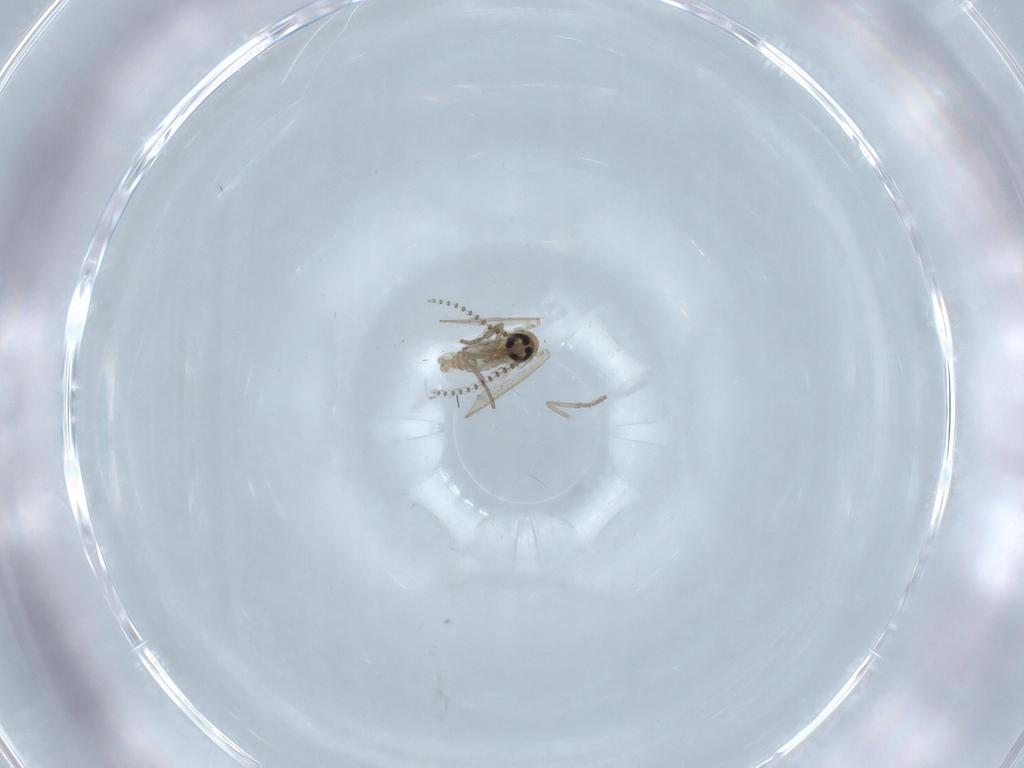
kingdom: Animalia
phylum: Arthropoda
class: Insecta
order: Diptera
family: Psychodidae
